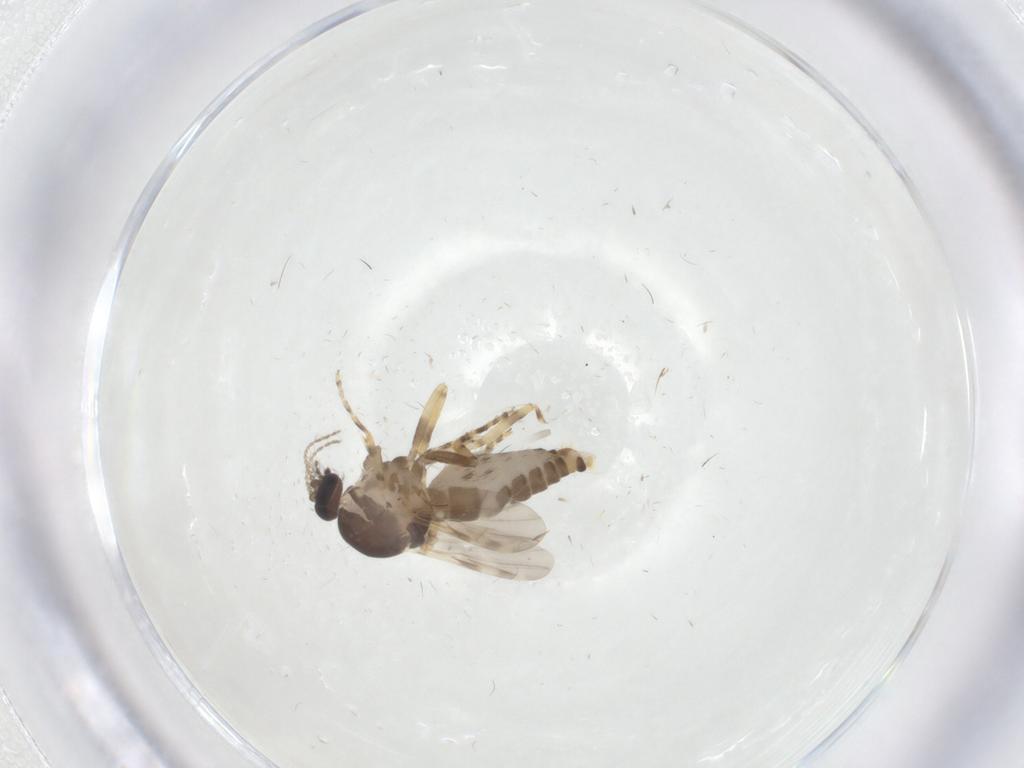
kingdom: Animalia
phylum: Arthropoda
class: Insecta
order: Diptera
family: Ceratopogonidae
